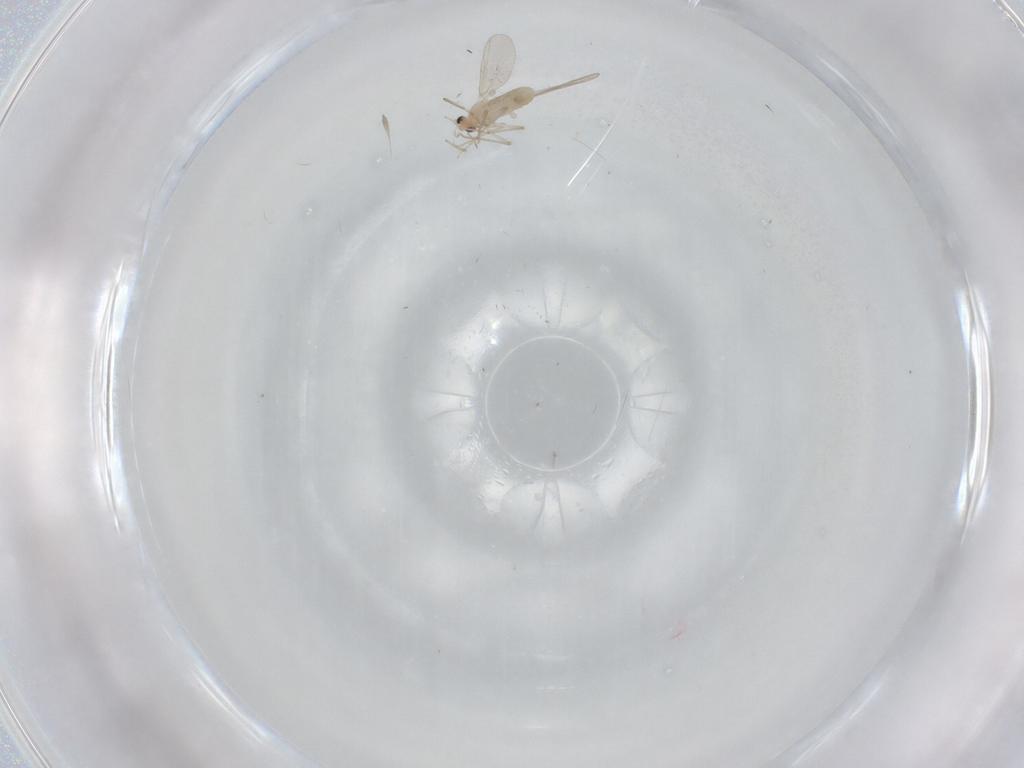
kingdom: Animalia
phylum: Arthropoda
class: Insecta
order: Diptera
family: Chironomidae
